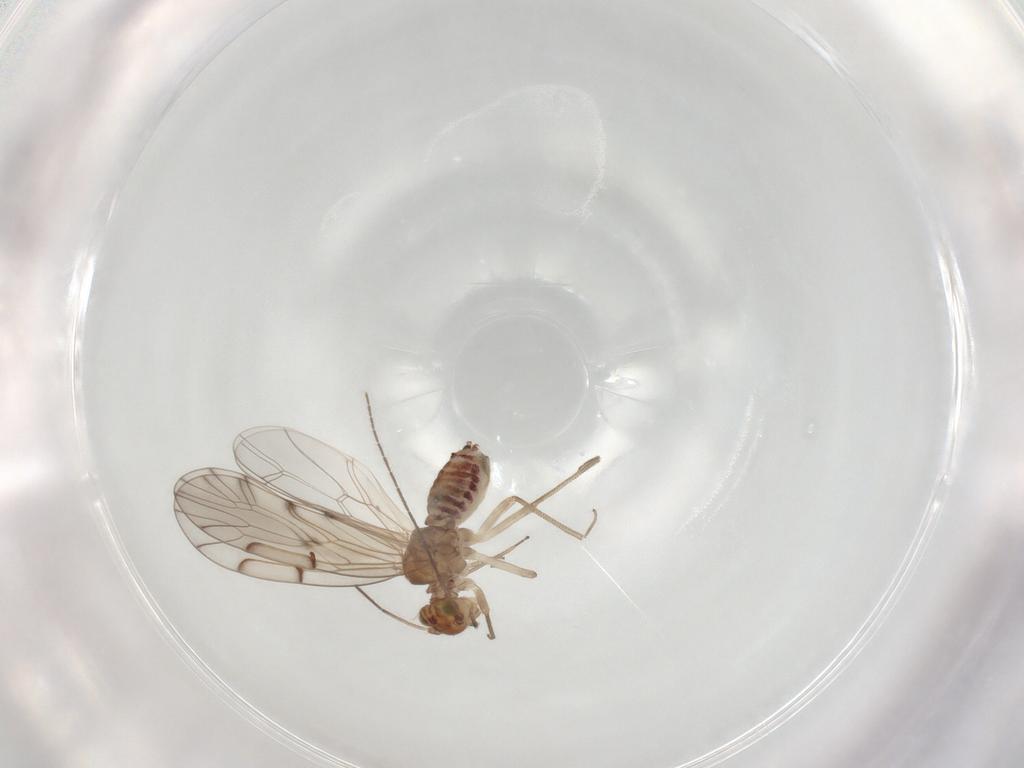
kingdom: Animalia
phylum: Arthropoda
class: Insecta
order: Hymenoptera
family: Trichogrammatidae
